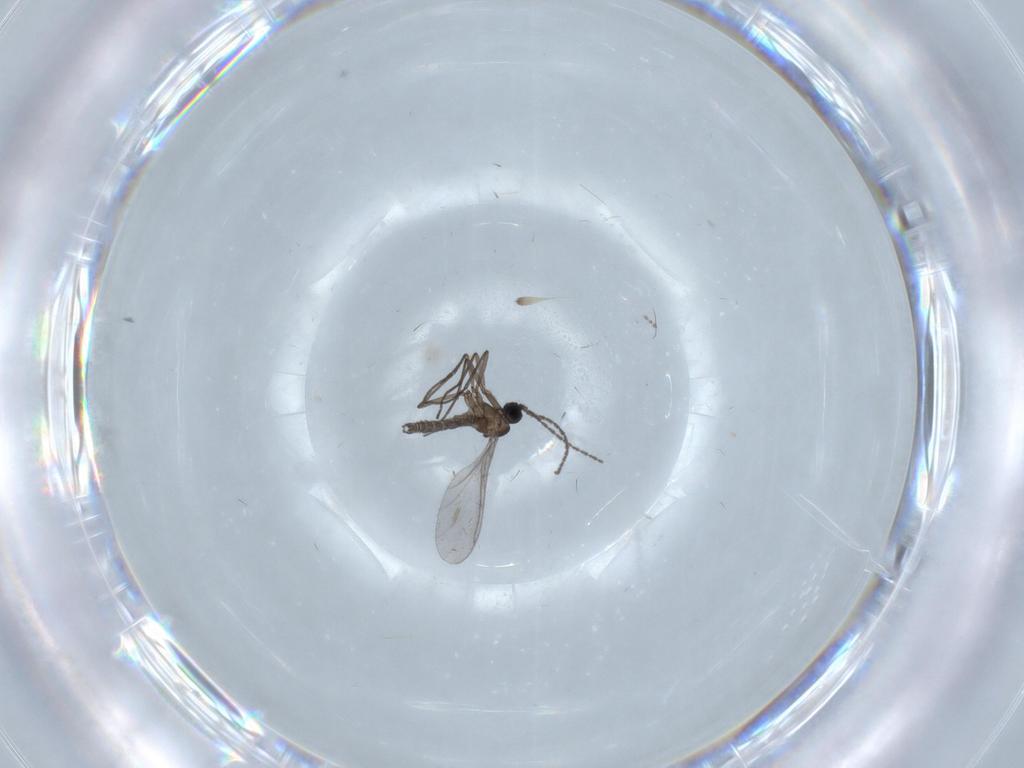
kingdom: Animalia
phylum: Arthropoda
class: Insecta
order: Diptera
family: Sciaridae
